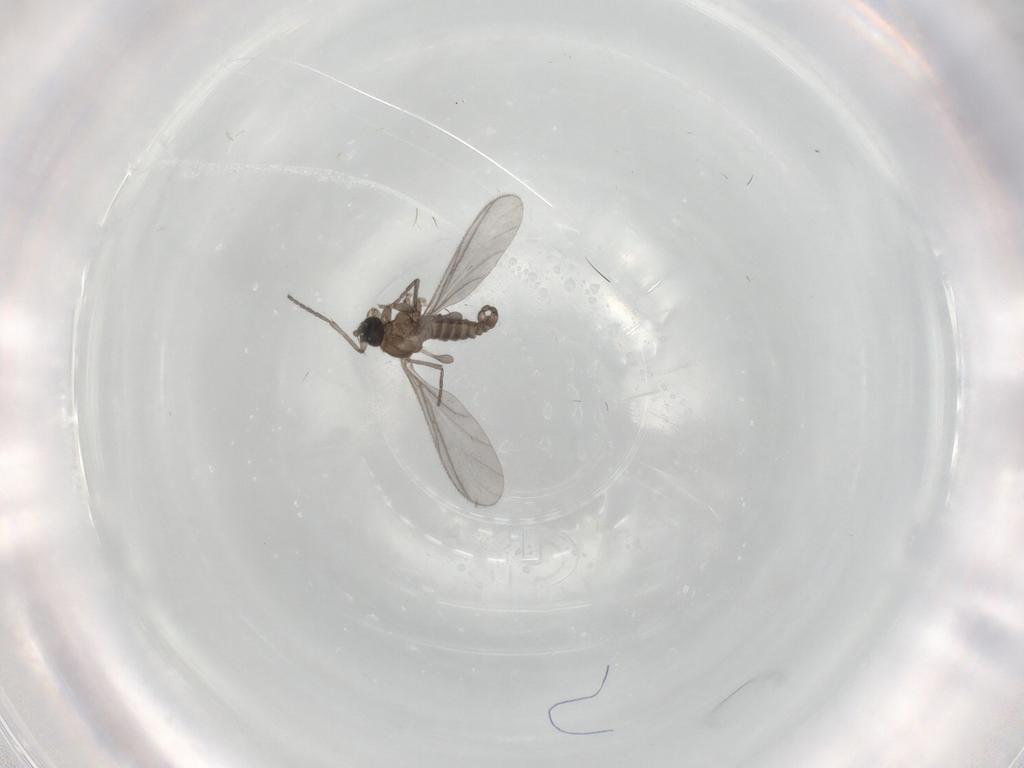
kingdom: Animalia
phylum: Arthropoda
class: Insecta
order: Diptera
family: Sciaridae
